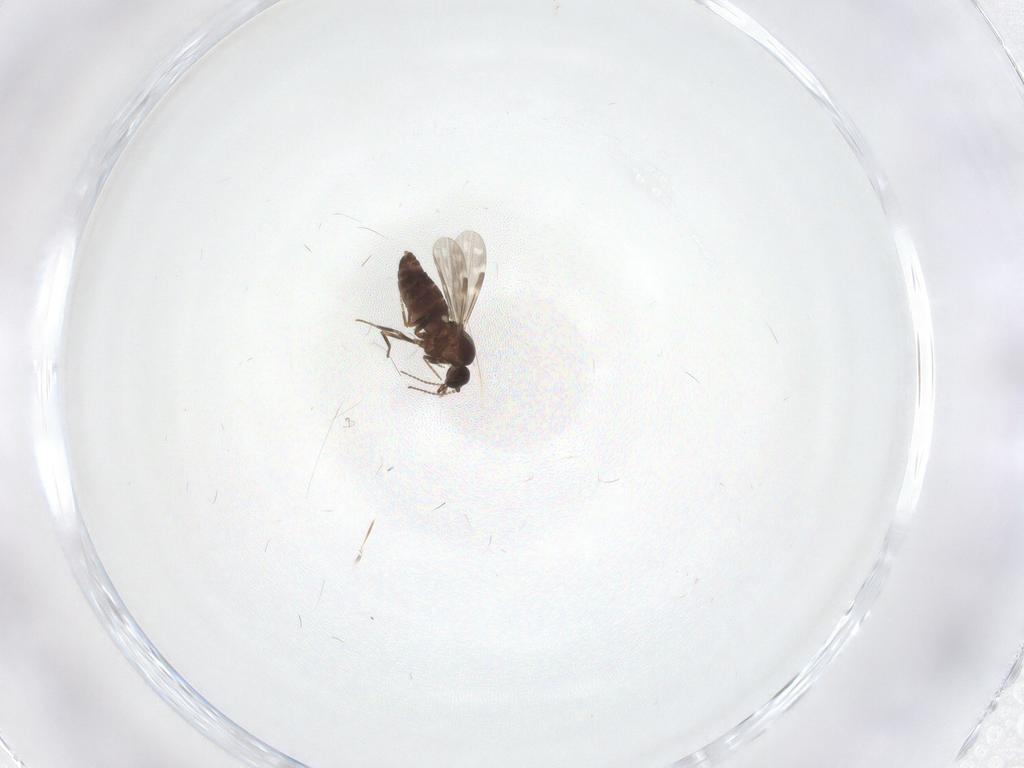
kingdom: Animalia
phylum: Arthropoda
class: Insecta
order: Diptera
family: Ceratopogonidae
